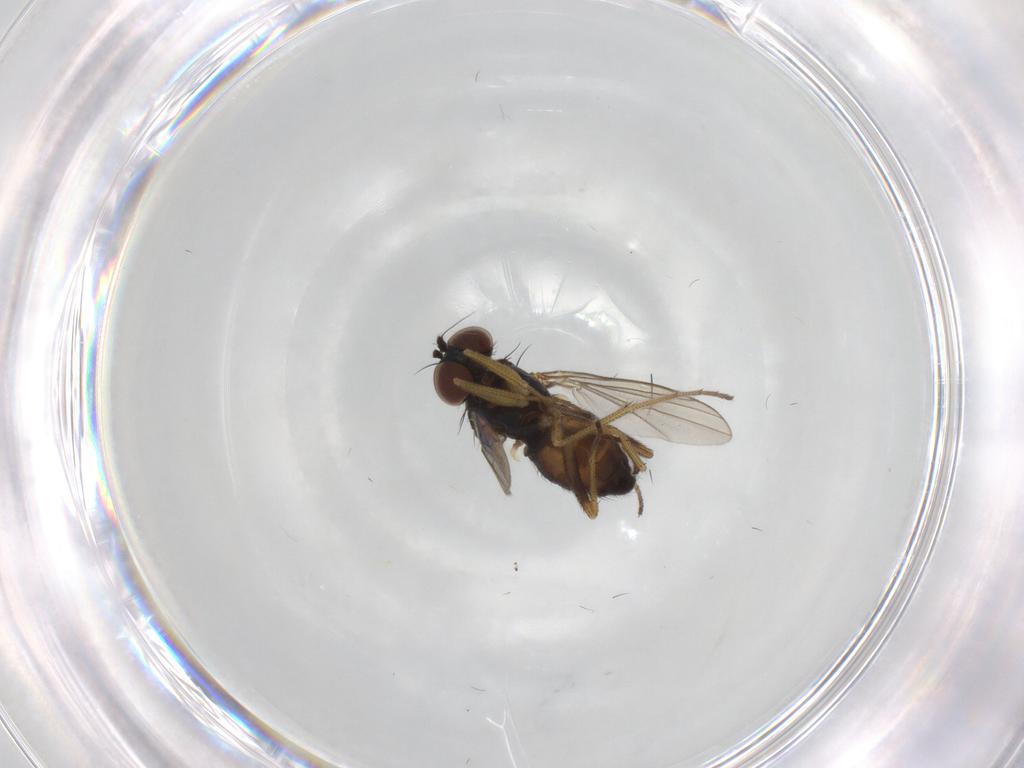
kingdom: Animalia
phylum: Arthropoda
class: Insecta
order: Diptera
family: Dolichopodidae
